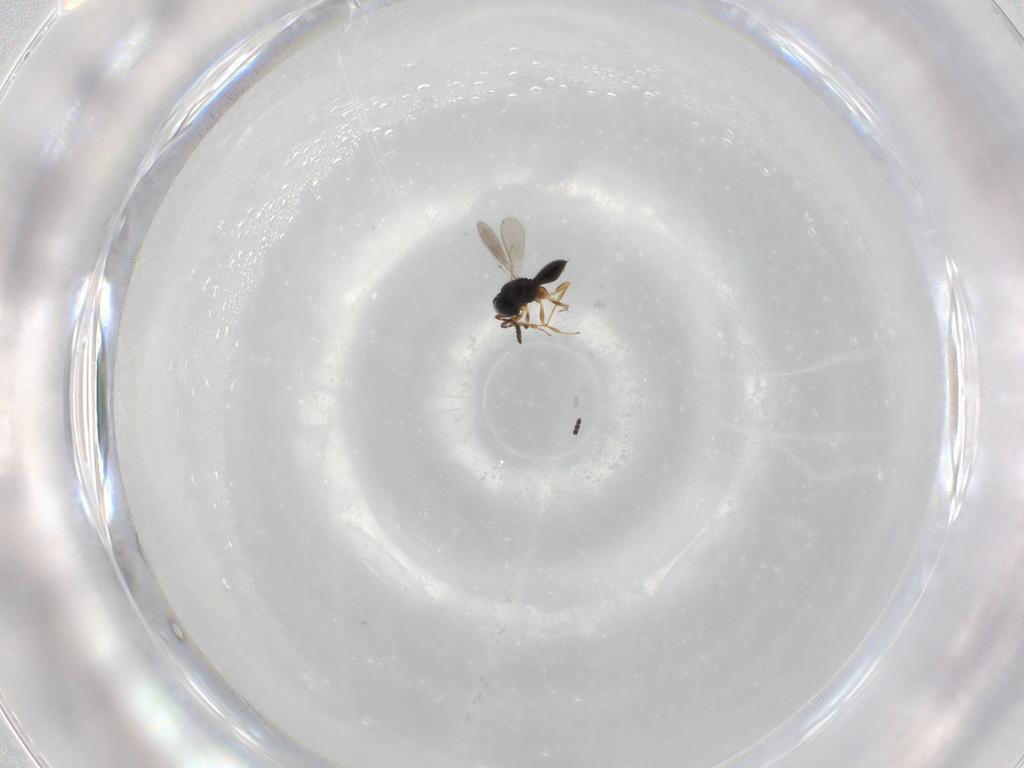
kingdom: Animalia
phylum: Arthropoda
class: Insecta
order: Hymenoptera
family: Scelionidae
